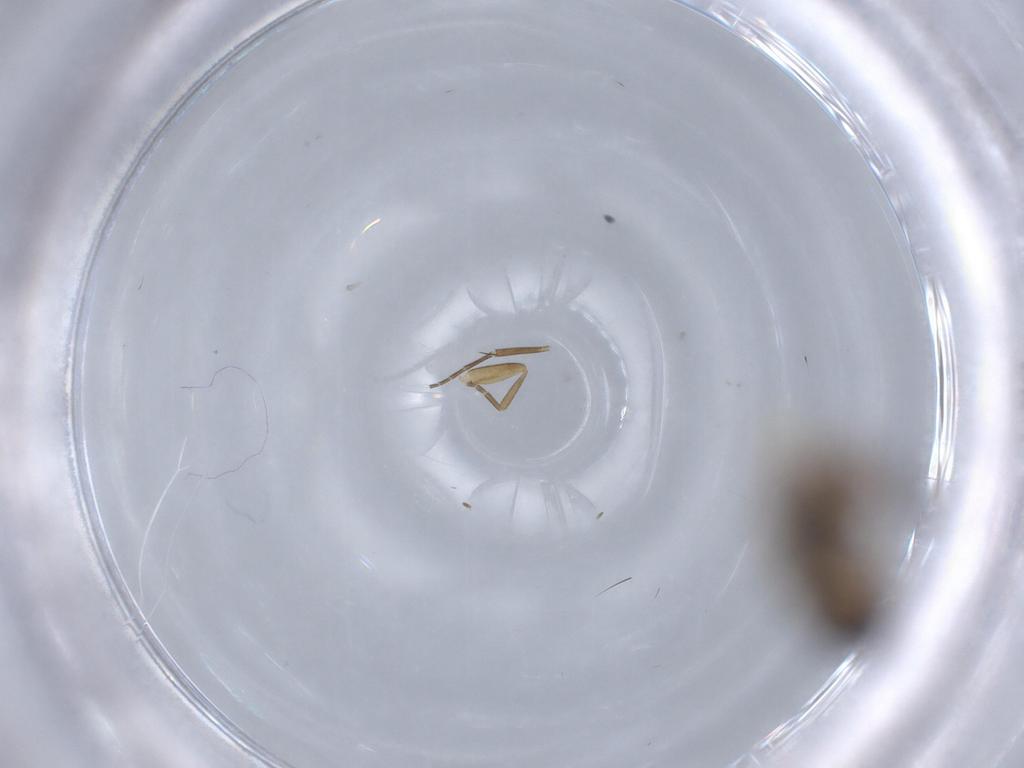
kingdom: Animalia
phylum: Arthropoda
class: Insecta
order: Diptera
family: Phoridae
